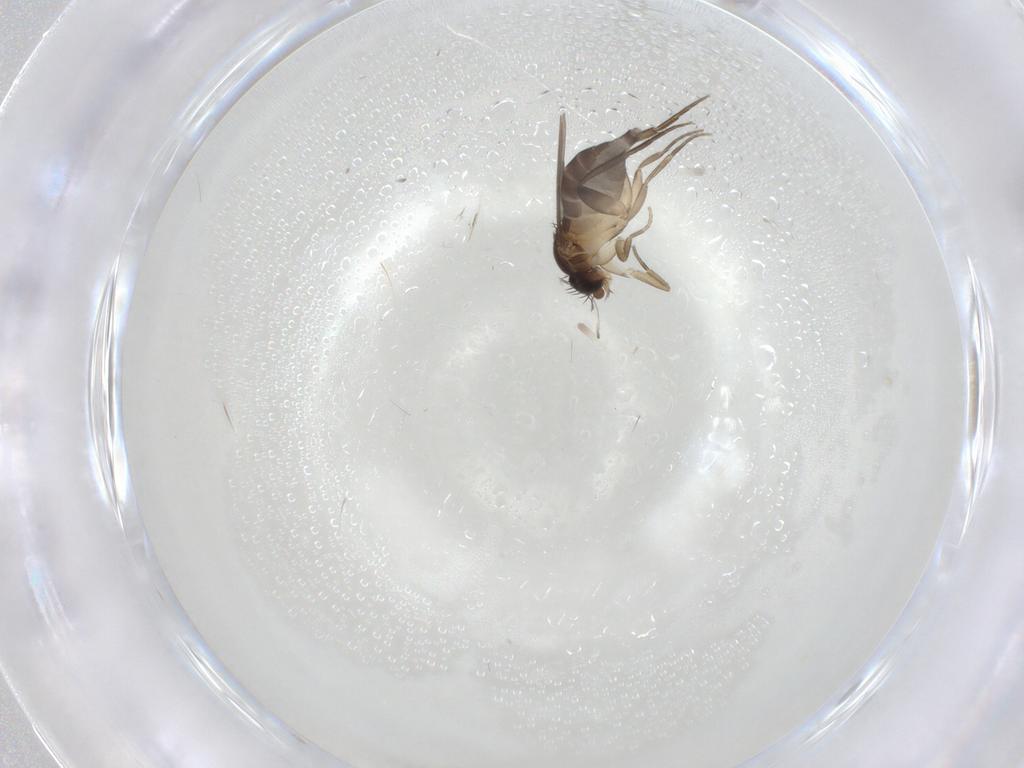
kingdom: Animalia
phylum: Arthropoda
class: Insecta
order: Diptera
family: Phoridae
